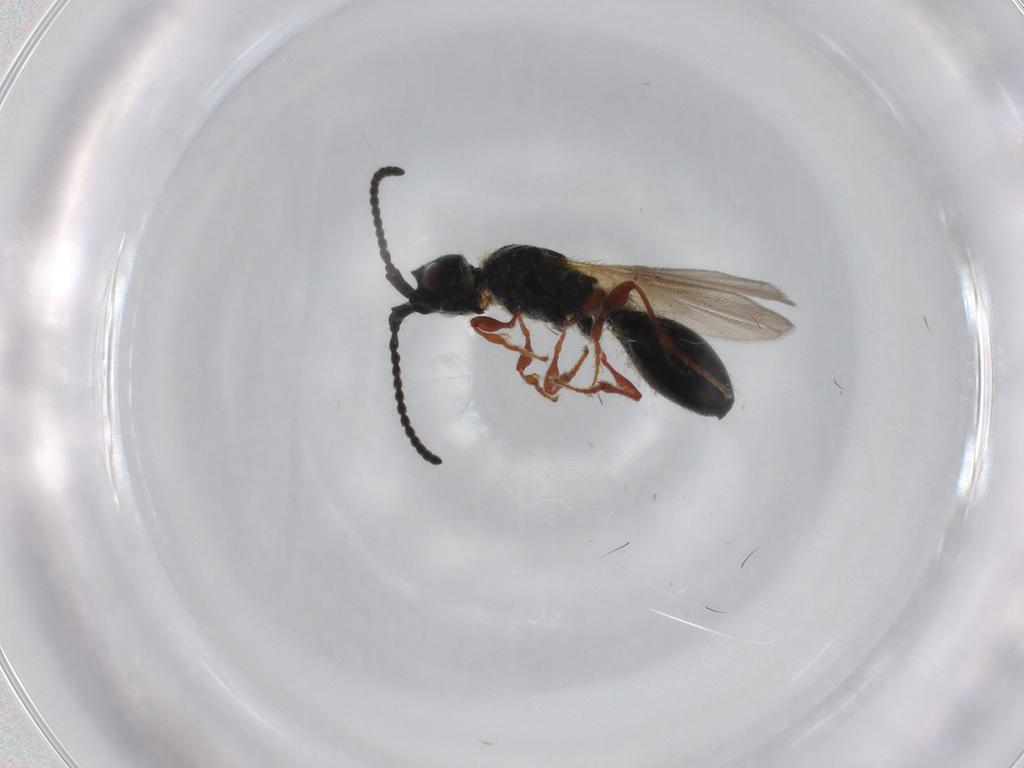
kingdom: Animalia
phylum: Arthropoda
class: Insecta
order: Hymenoptera
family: Diapriidae
